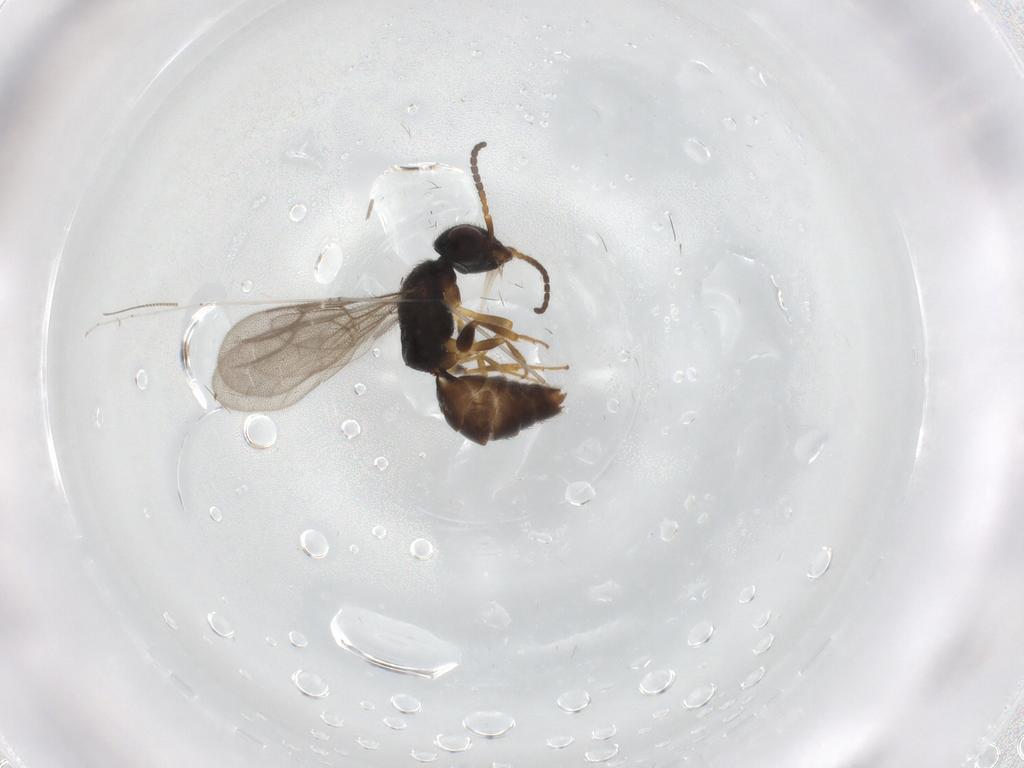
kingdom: Animalia
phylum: Arthropoda
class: Insecta
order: Hymenoptera
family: Bethylidae
